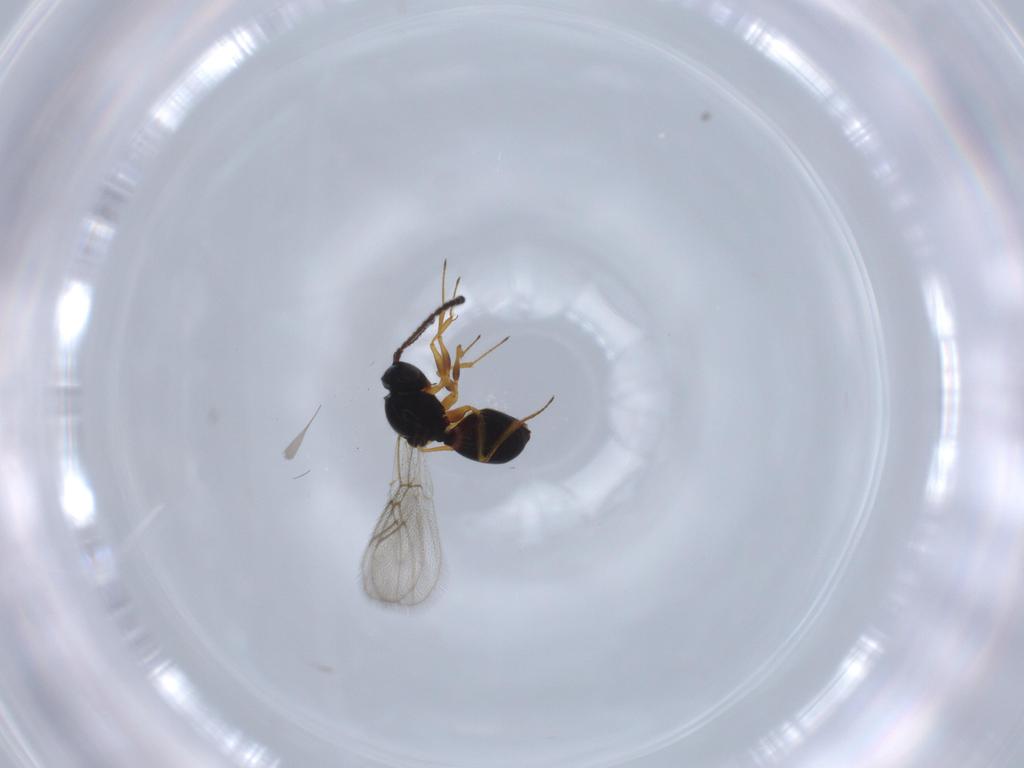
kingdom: Animalia
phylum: Arthropoda
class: Insecta
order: Hymenoptera
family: Figitidae
